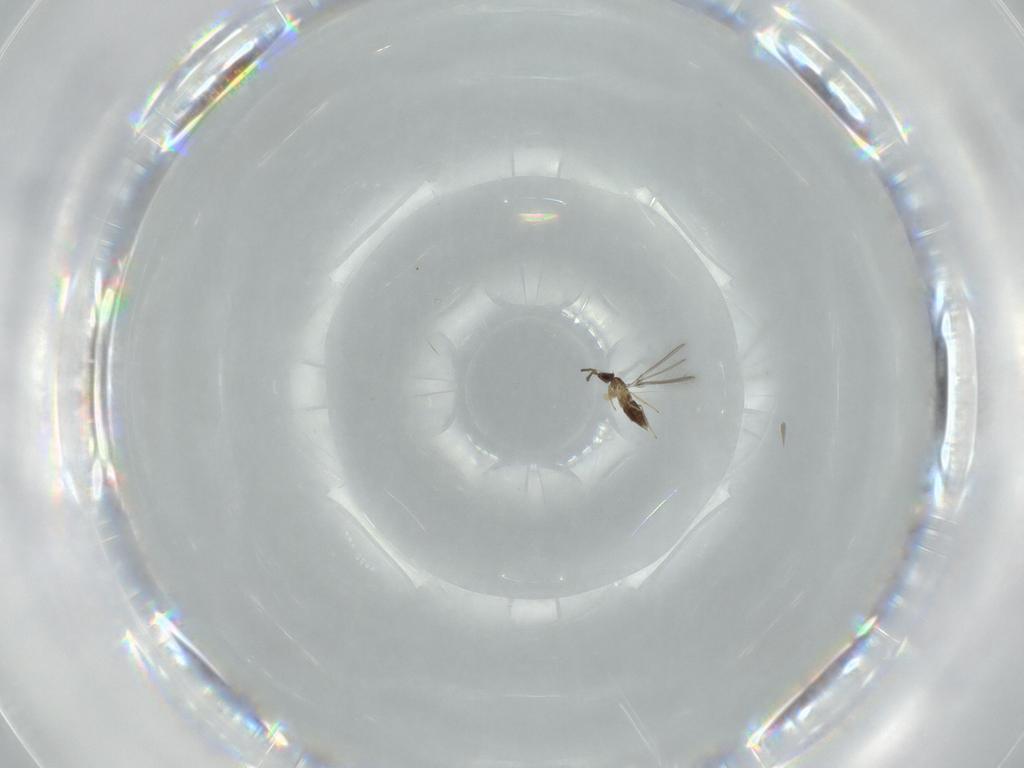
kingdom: Animalia
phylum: Arthropoda
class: Insecta
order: Hymenoptera
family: Mymaridae
